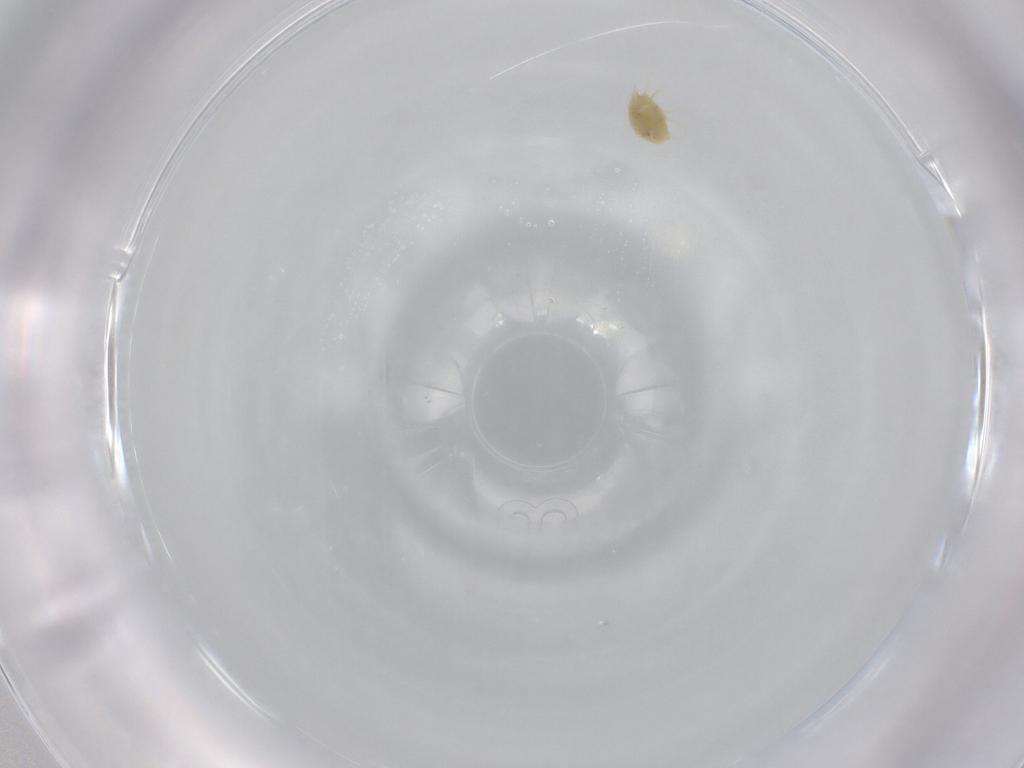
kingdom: Animalia
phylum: Arthropoda
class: Arachnida
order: Trombidiformes
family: Tetranychidae
